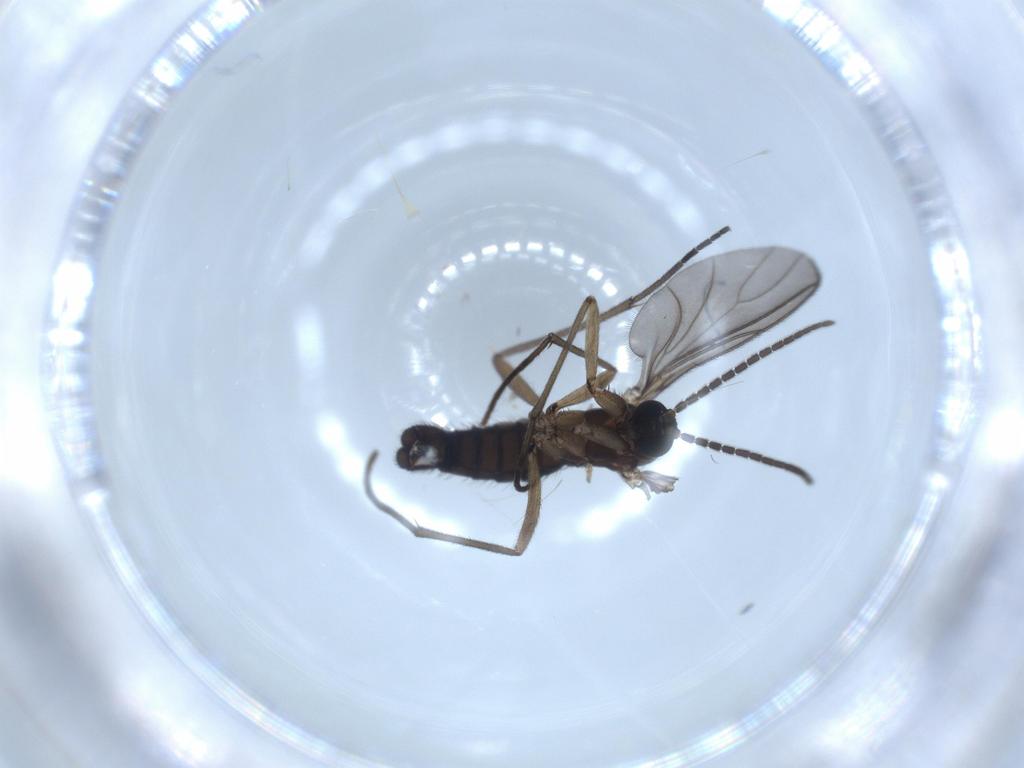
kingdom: Animalia
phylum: Arthropoda
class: Insecta
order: Diptera
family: Sciaridae
